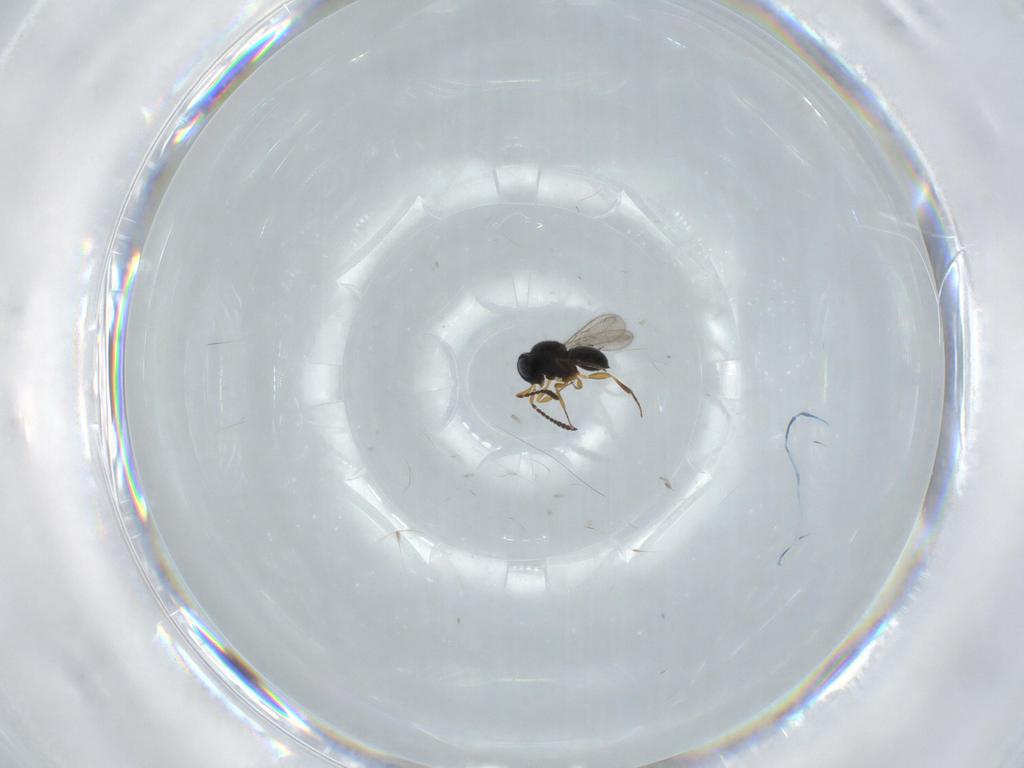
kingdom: Animalia
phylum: Arthropoda
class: Insecta
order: Hymenoptera
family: Scelionidae
